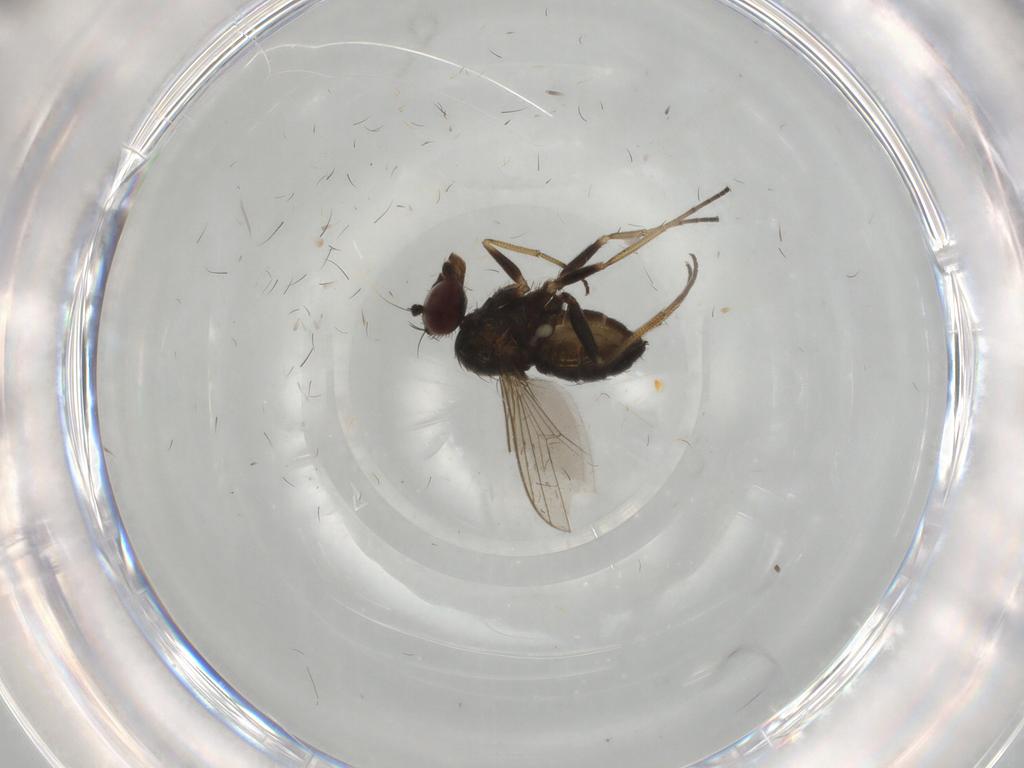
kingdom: Animalia
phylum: Arthropoda
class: Insecta
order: Diptera
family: Dolichopodidae
